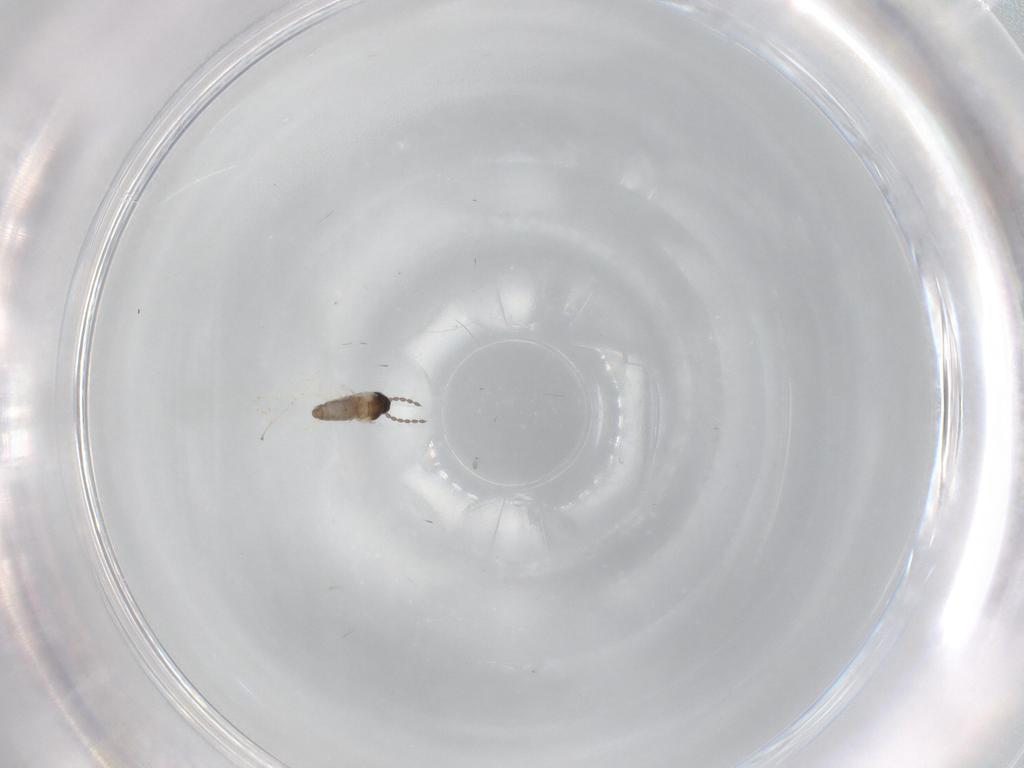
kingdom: Animalia
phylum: Arthropoda
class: Insecta
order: Diptera
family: Cecidomyiidae
